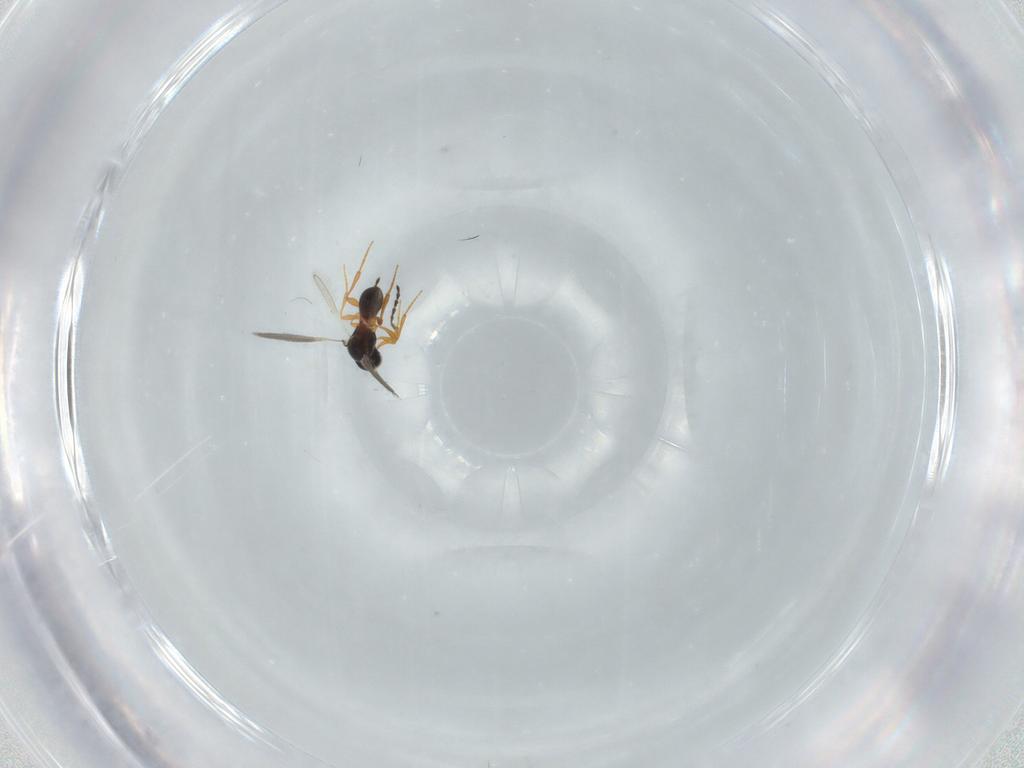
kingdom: Animalia
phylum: Arthropoda
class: Insecta
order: Hymenoptera
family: Platygastridae
